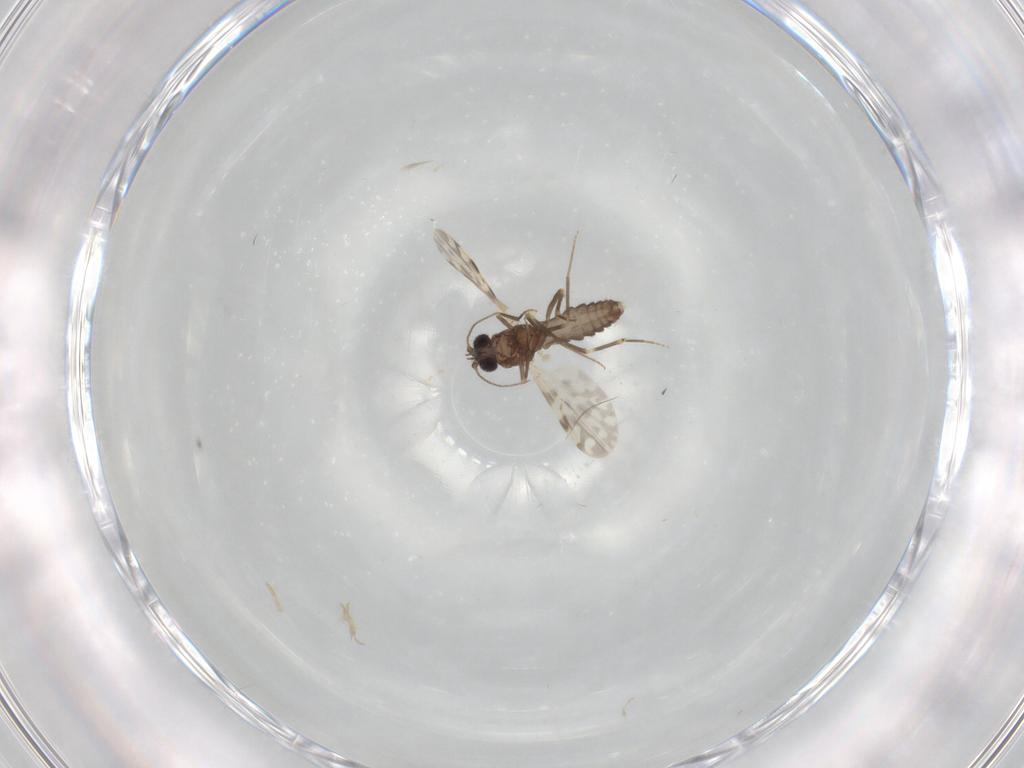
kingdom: Animalia
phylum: Arthropoda
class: Insecta
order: Diptera
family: Ceratopogonidae
